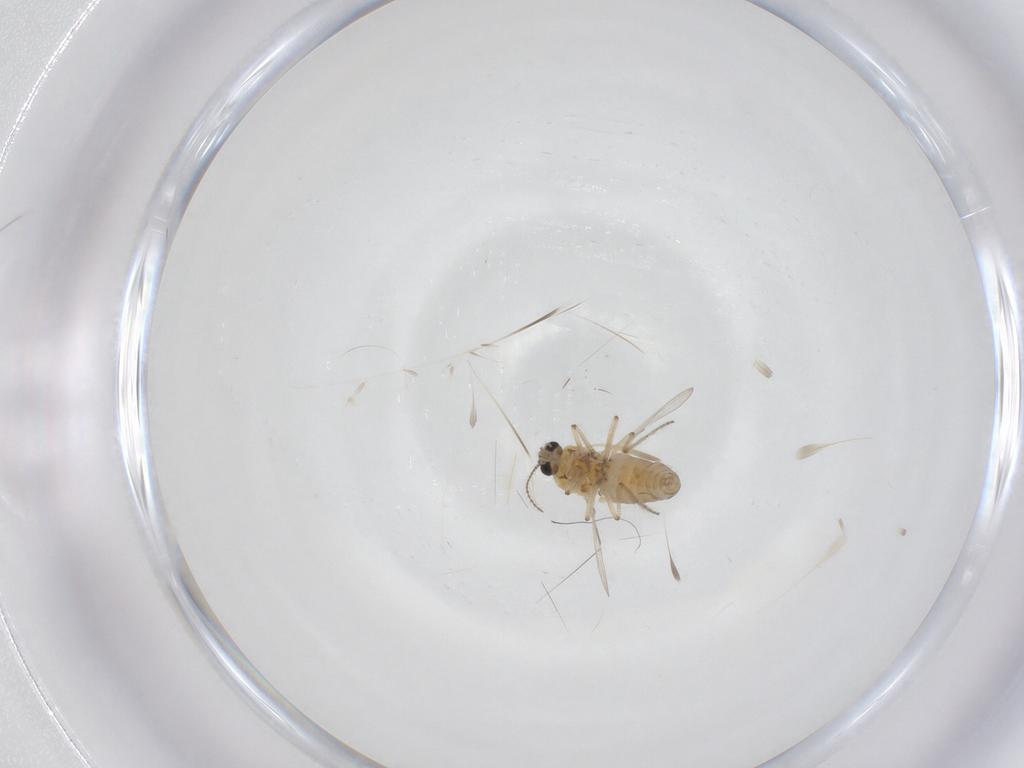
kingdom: Animalia
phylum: Arthropoda
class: Insecta
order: Diptera
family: Ceratopogonidae
